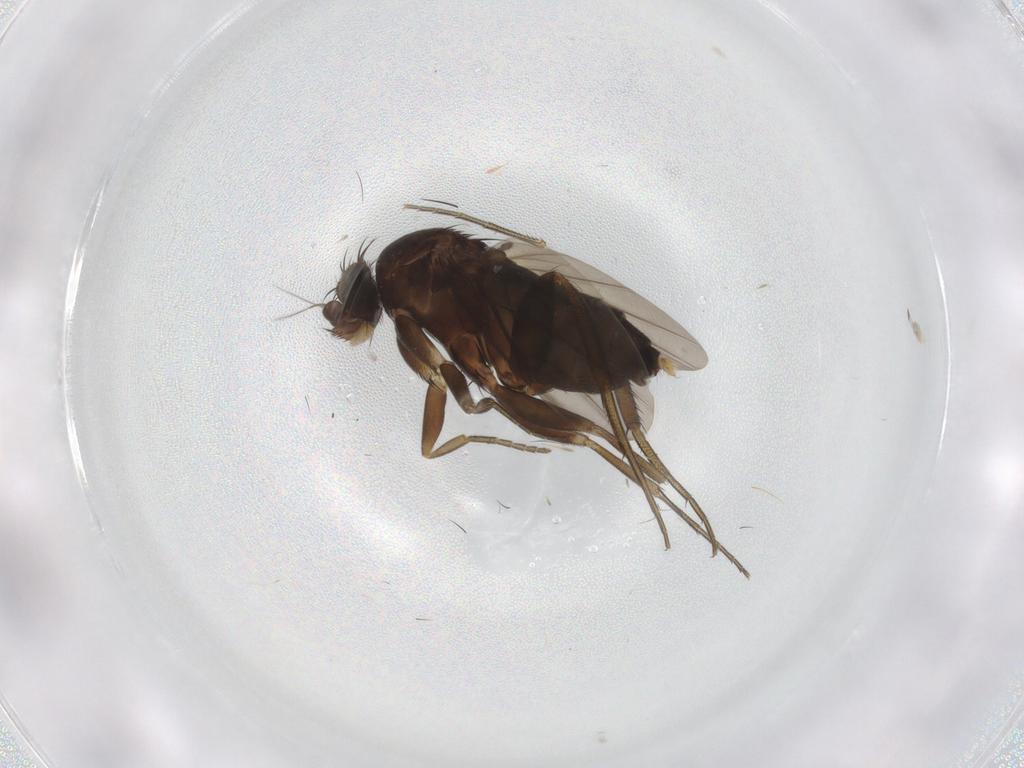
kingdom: Animalia
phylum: Arthropoda
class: Insecta
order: Diptera
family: Phoridae
